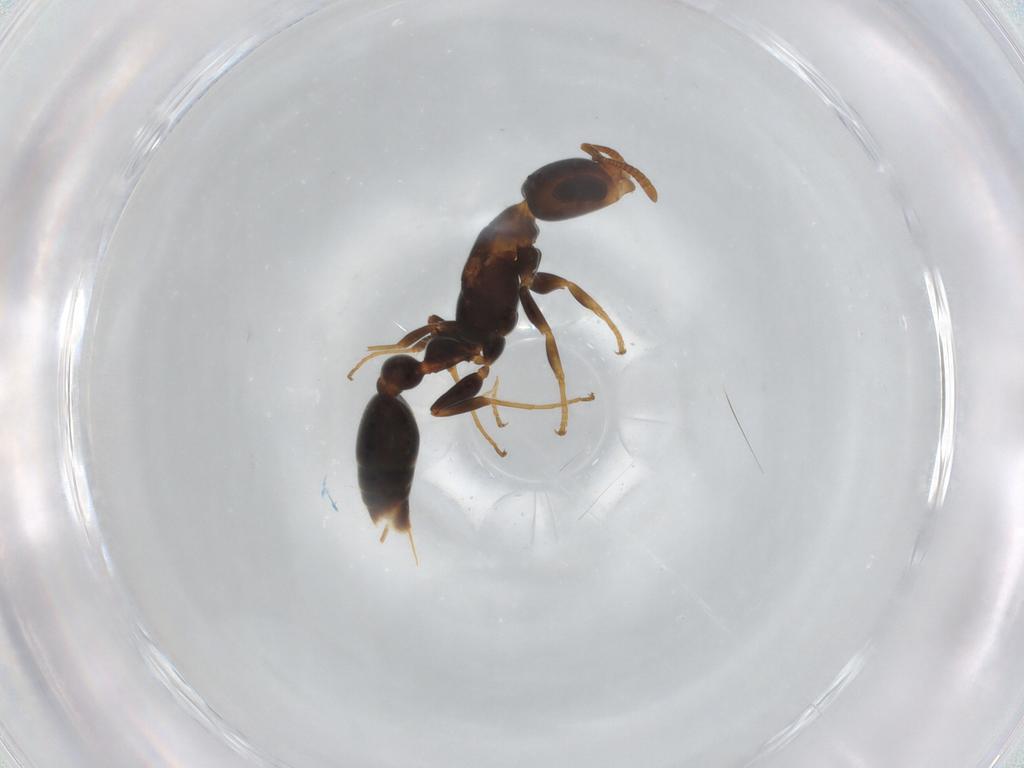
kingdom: Animalia
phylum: Arthropoda
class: Insecta
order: Hymenoptera
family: Formicidae
